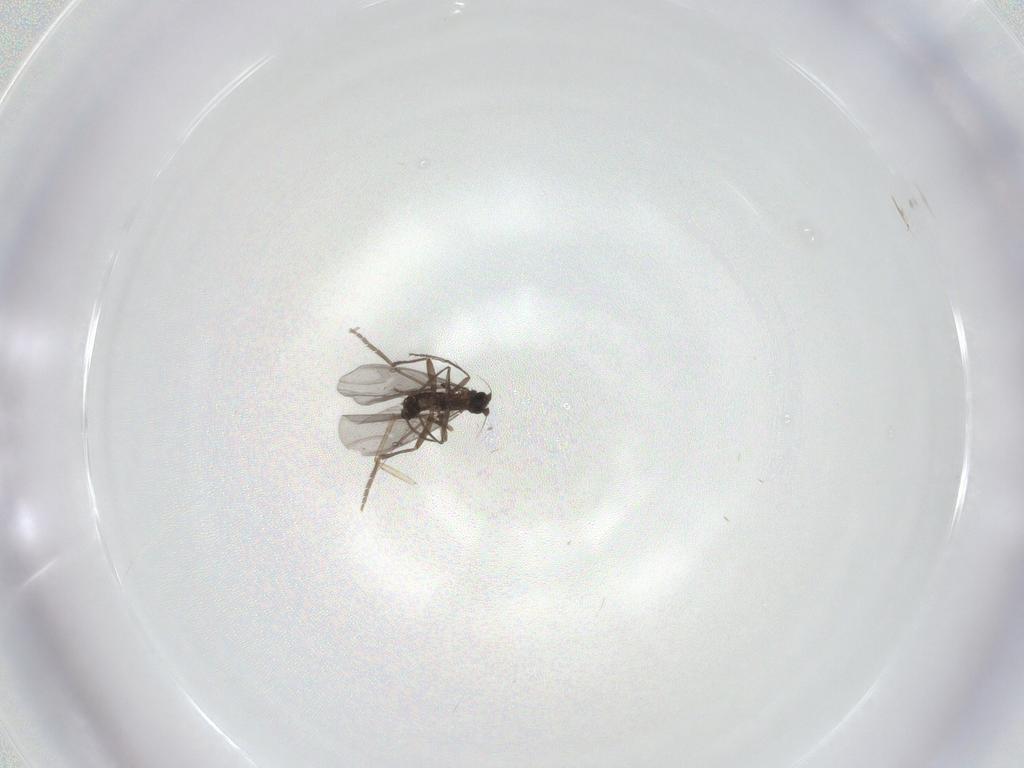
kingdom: Animalia
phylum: Arthropoda
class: Insecta
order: Diptera
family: Phoridae
